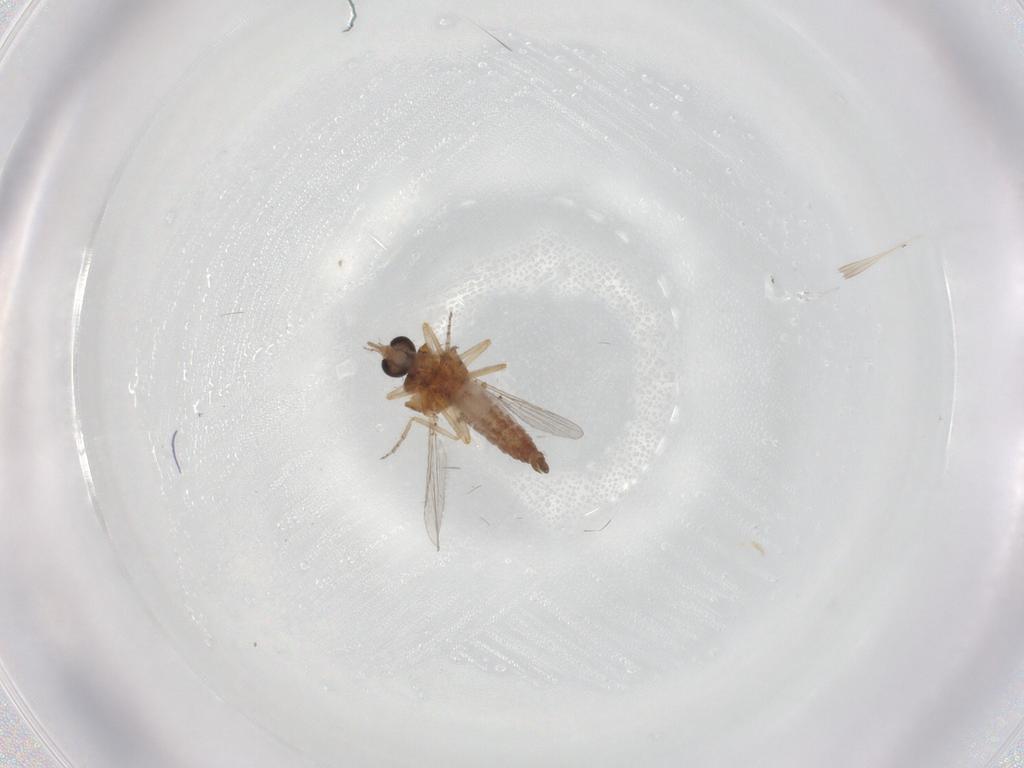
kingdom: Animalia
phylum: Arthropoda
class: Insecta
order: Diptera
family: Ceratopogonidae
